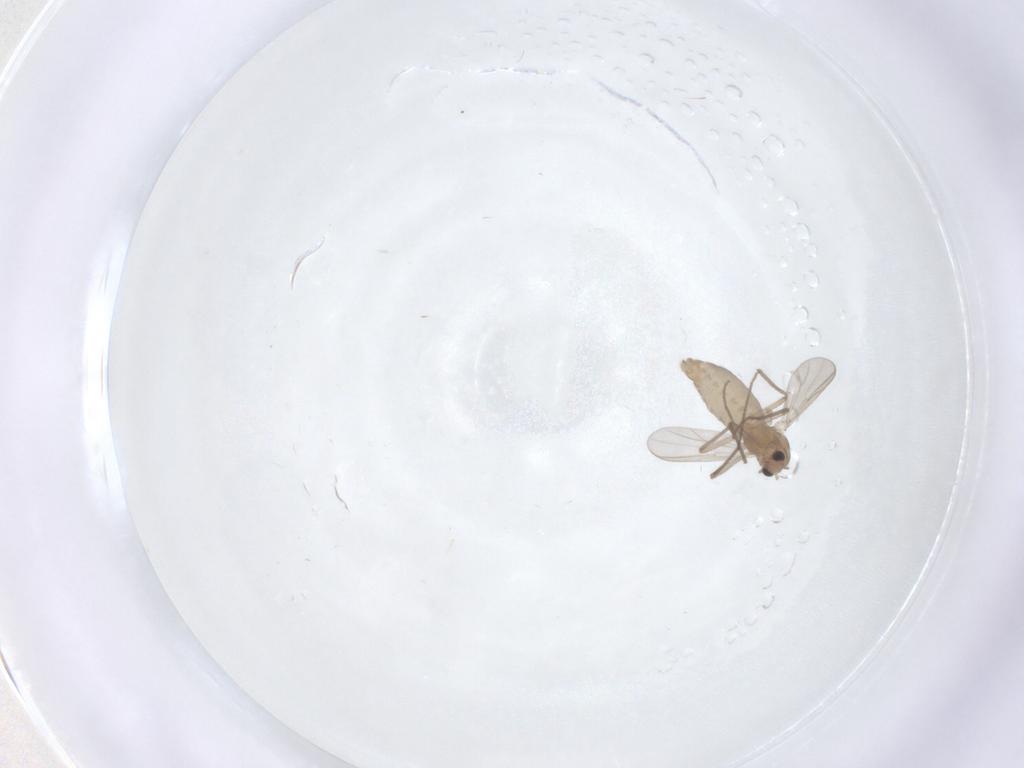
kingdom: Animalia
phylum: Arthropoda
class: Insecta
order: Diptera
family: Chironomidae
